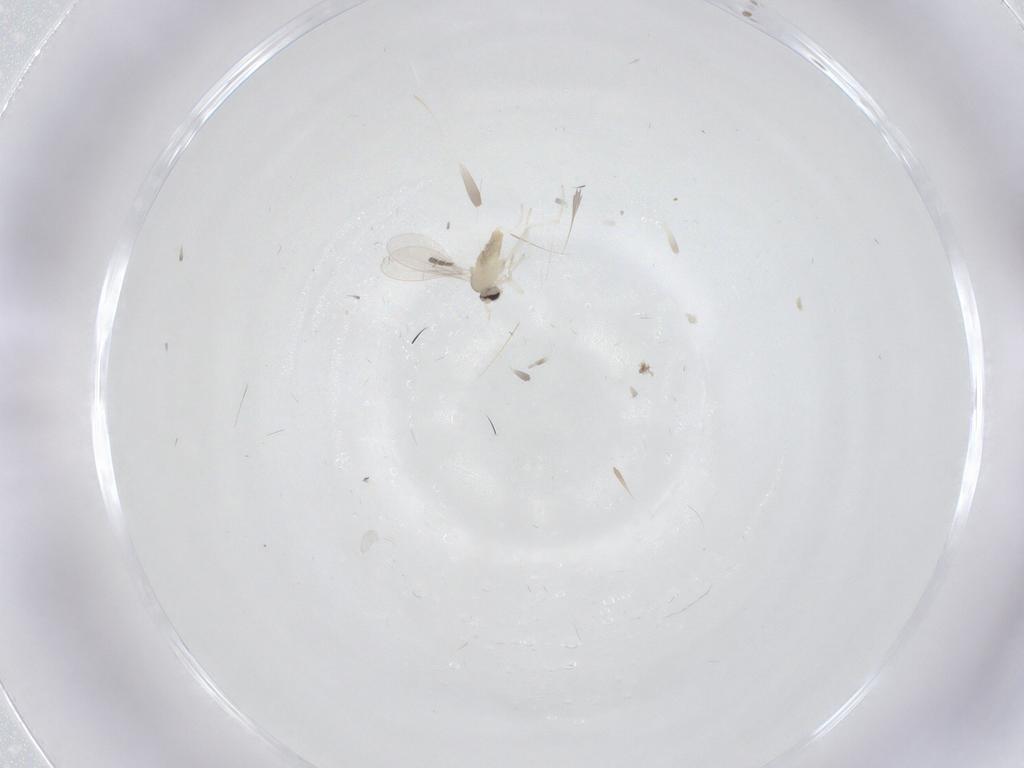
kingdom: Animalia
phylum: Arthropoda
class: Insecta
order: Diptera
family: Cecidomyiidae
